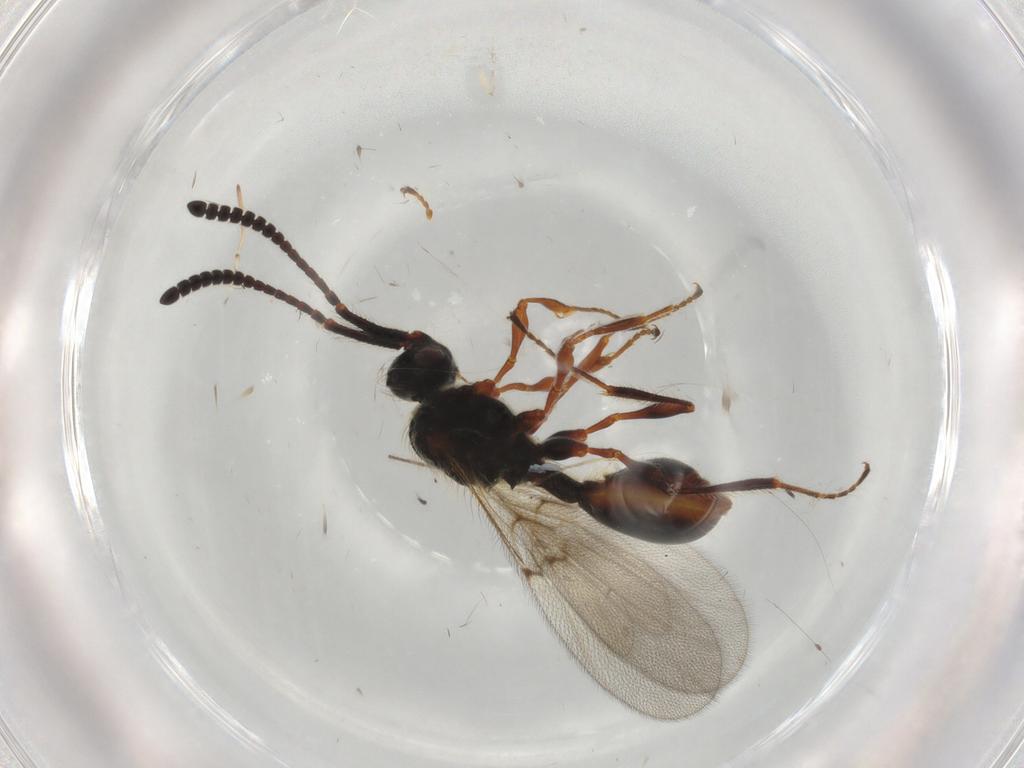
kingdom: Animalia
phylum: Arthropoda
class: Insecta
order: Hymenoptera
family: Diapriidae
